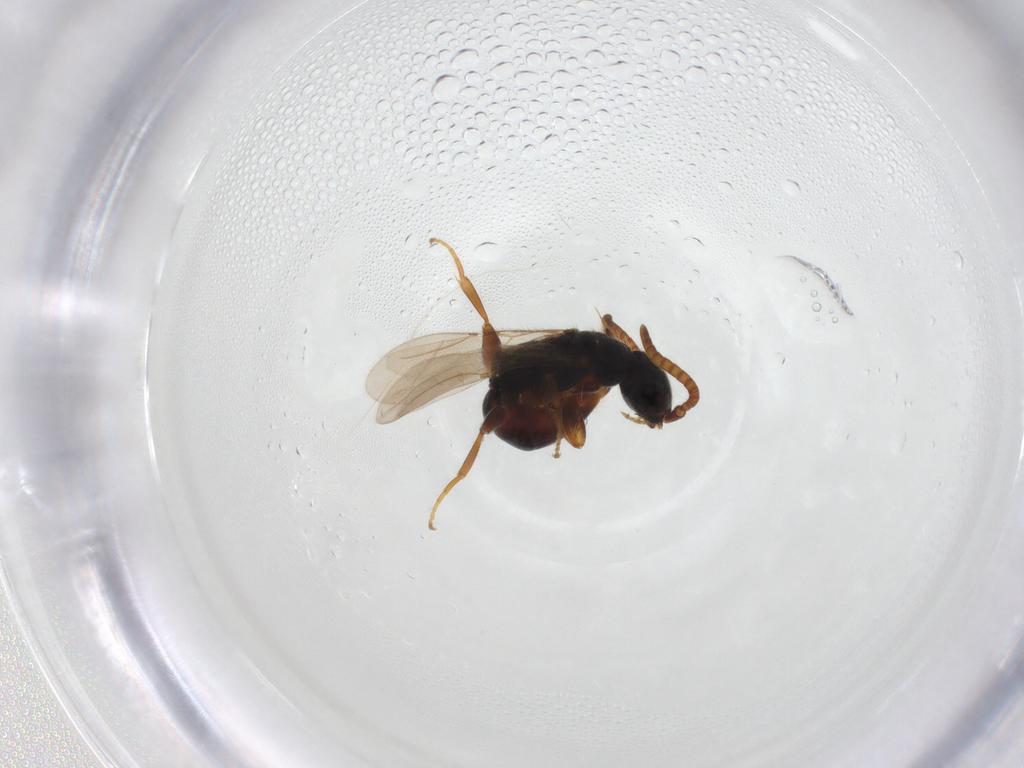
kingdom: Animalia
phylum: Arthropoda
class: Insecta
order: Hymenoptera
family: Bethylidae
